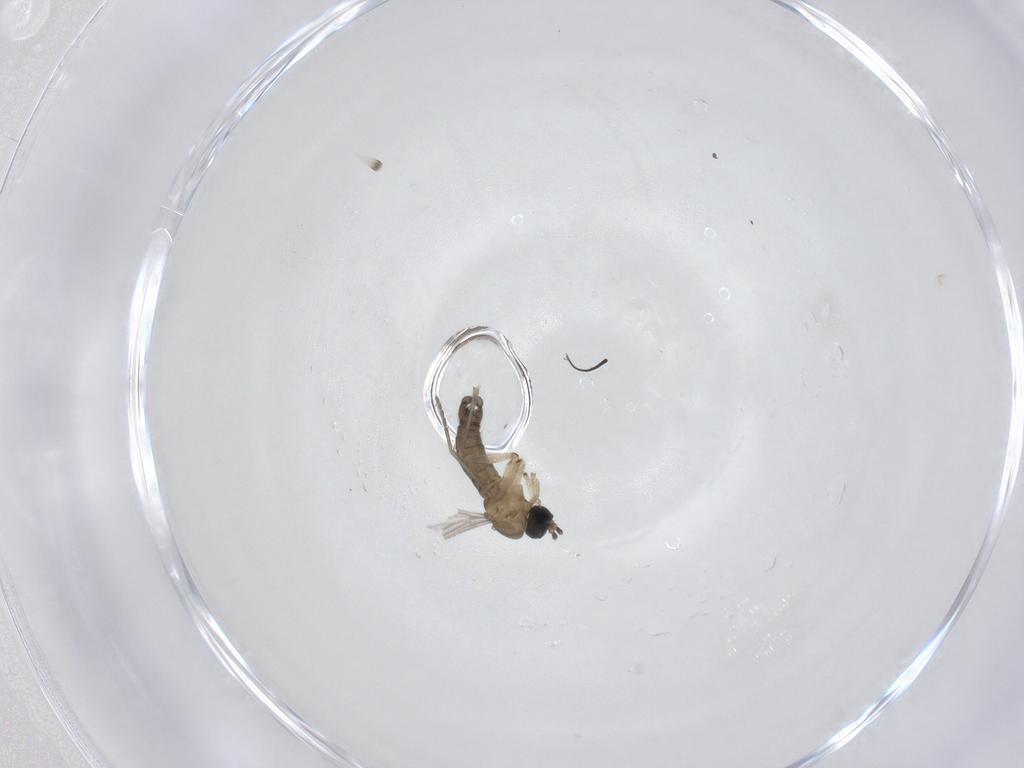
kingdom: Animalia
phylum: Arthropoda
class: Insecta
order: Diptera
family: Sciaridae
